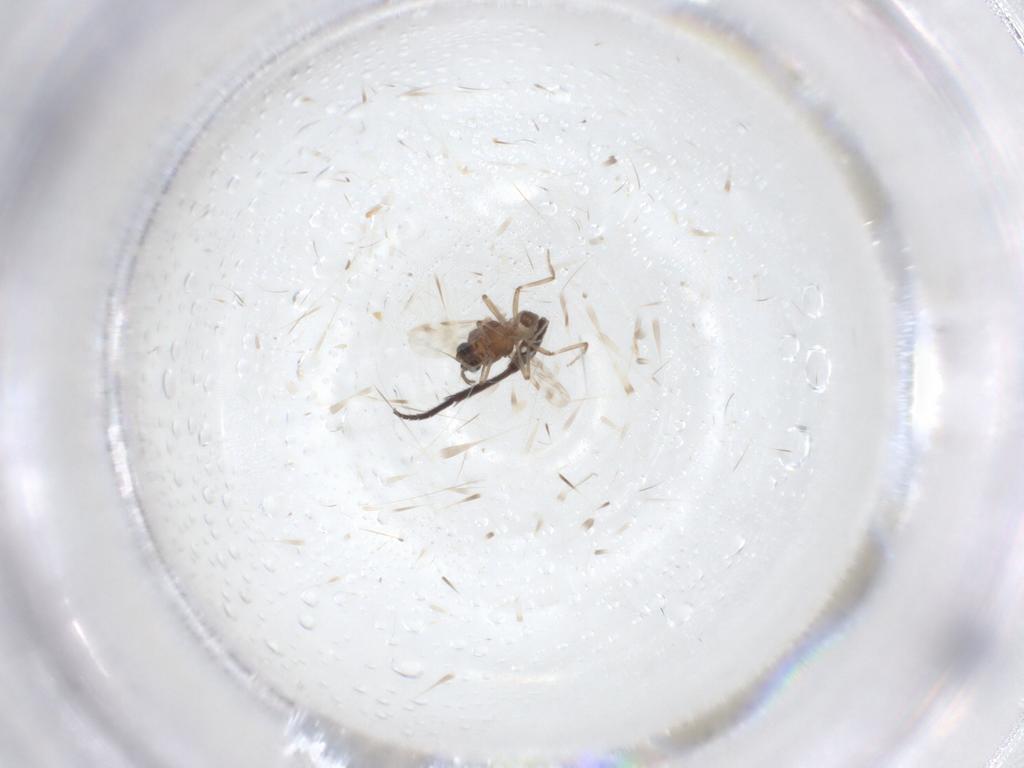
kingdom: Animalia
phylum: Arthropoda
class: Insecta
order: Diptera
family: Ceratopogonidae
